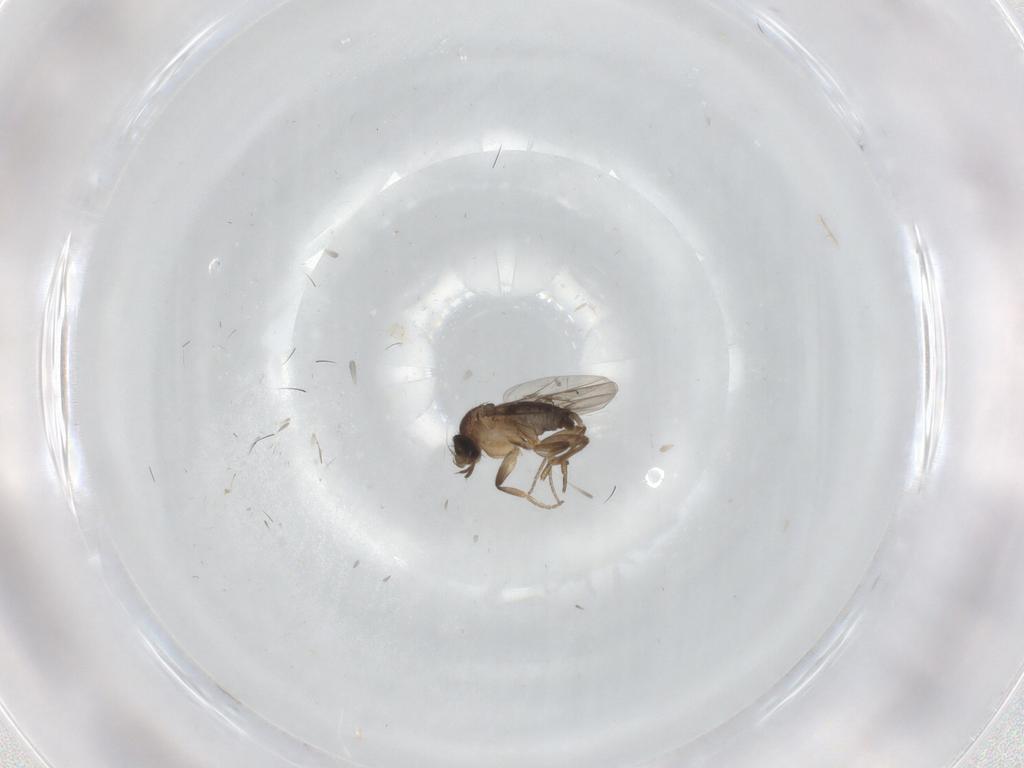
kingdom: Animalia
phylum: Arthropoda
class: Insecta
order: Diptera
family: Phoridae
